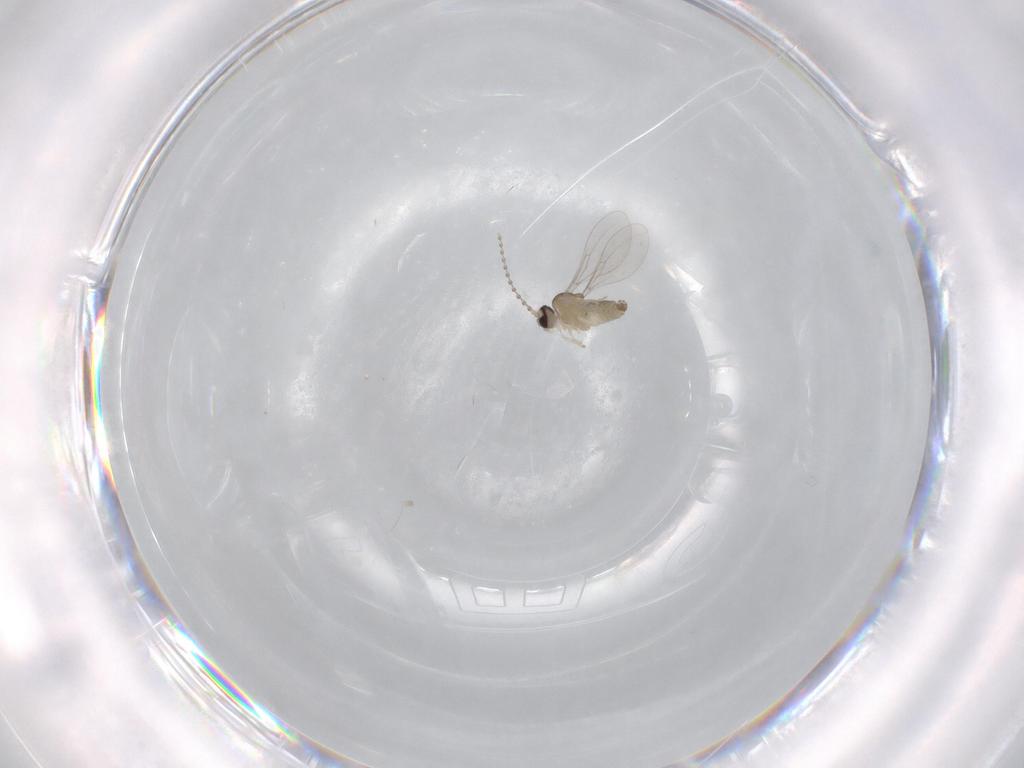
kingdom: Animalia
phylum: Arthropoda
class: Insecta
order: Diptera
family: Cecidomyiidae
